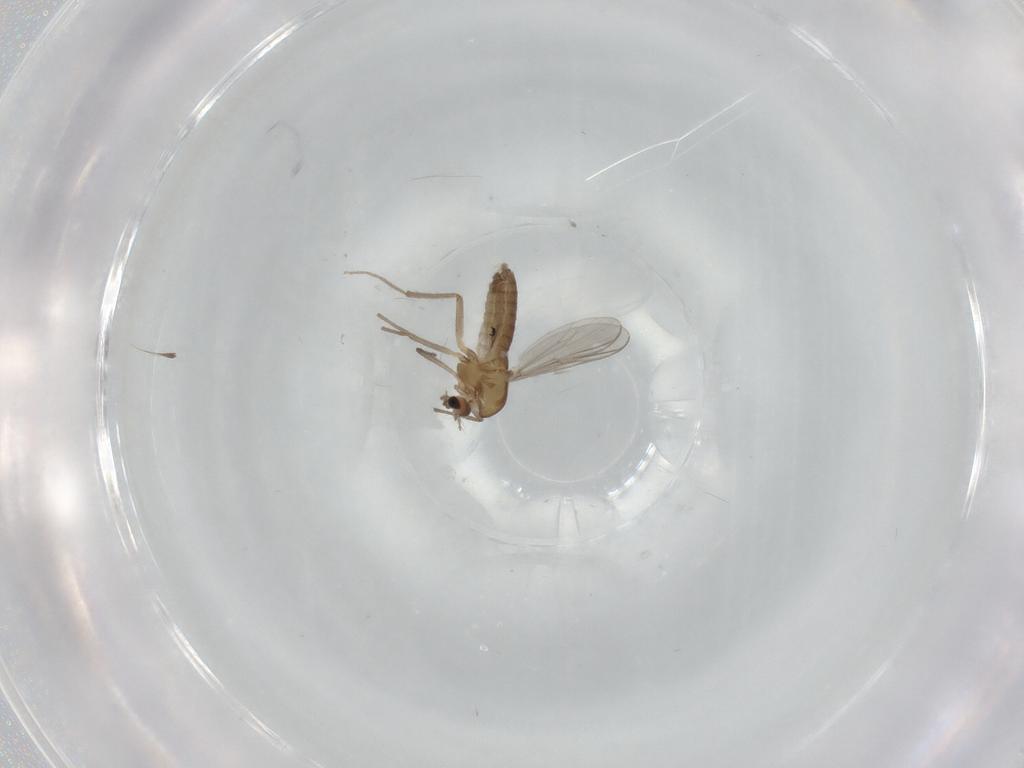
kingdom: Animalia
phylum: Arthropoda
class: Insecta
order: Diptera
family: Chironomidae
